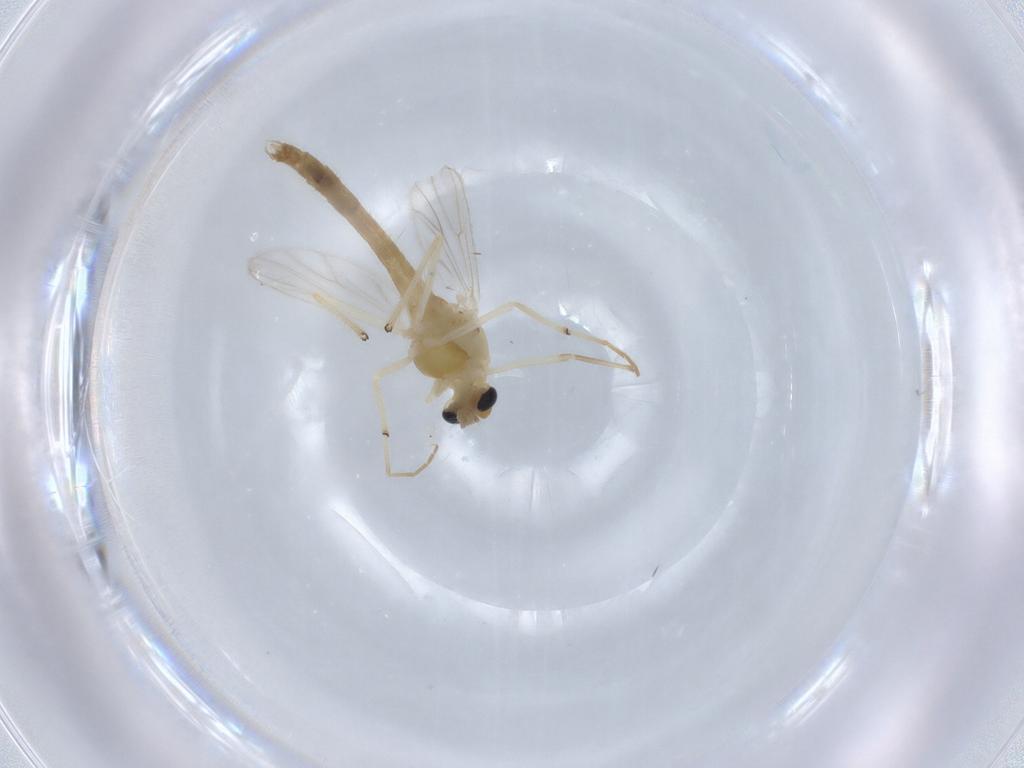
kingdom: Animalia
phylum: Arthropoda
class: Insecta
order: Diptera
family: Chironomidae
